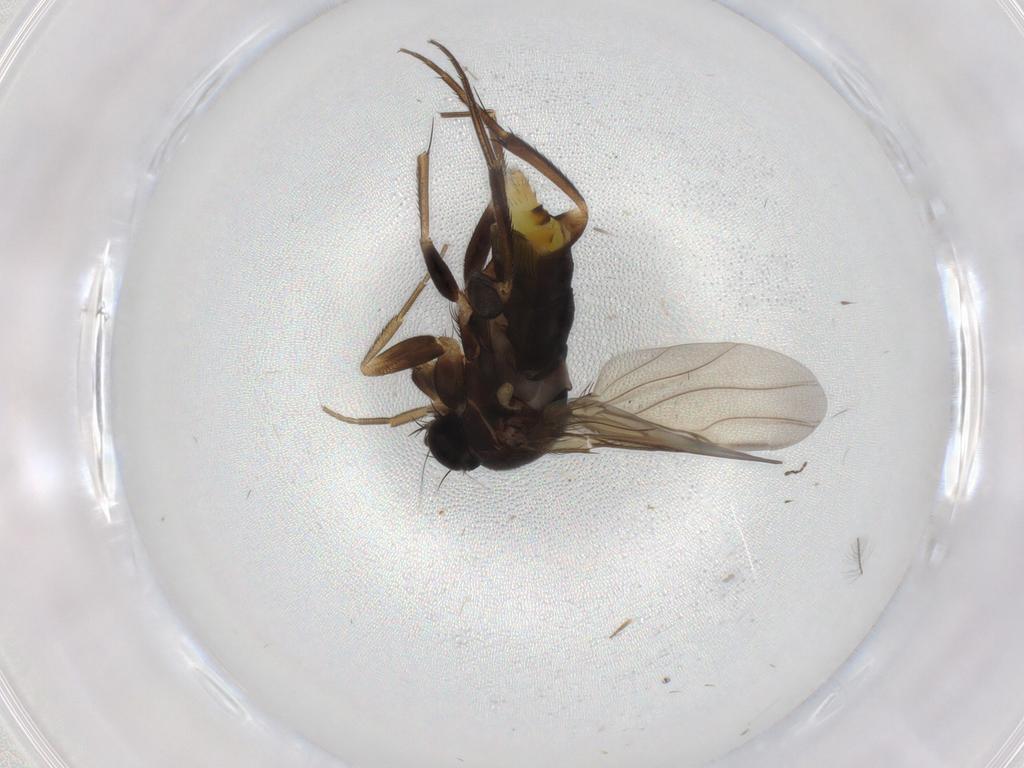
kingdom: Animalia
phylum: Arthropoda
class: Insecta
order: Diptera
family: Phoridae
